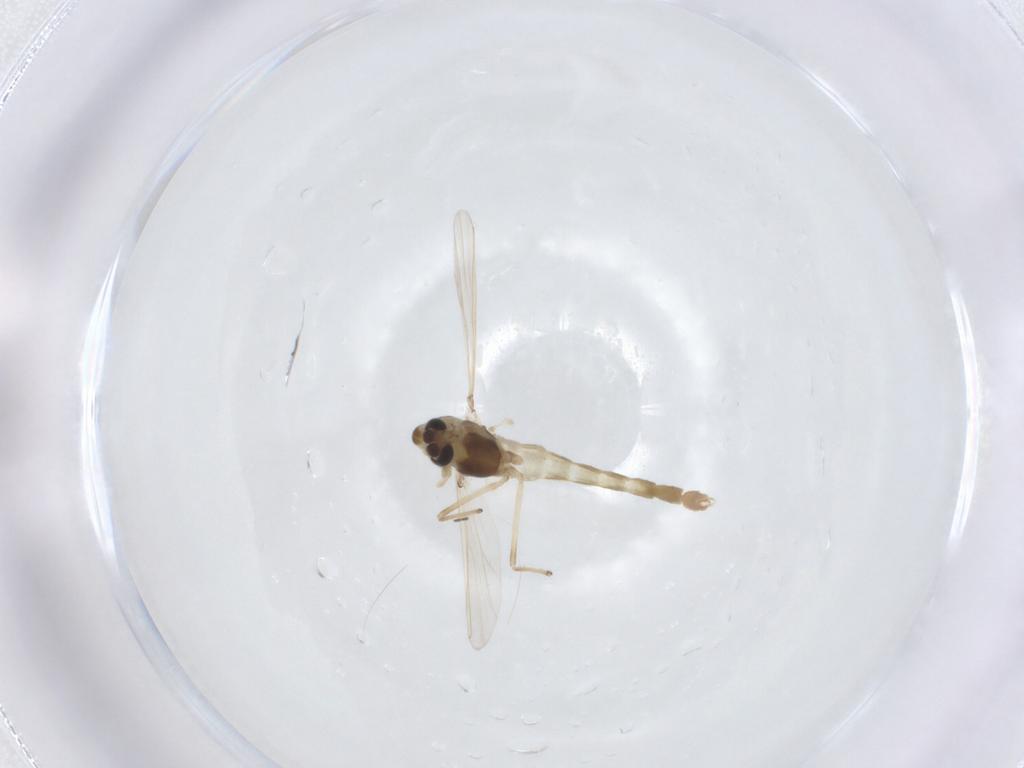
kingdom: Animalia
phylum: Arthropoda
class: Insecta
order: Diptera
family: Chironomidae
